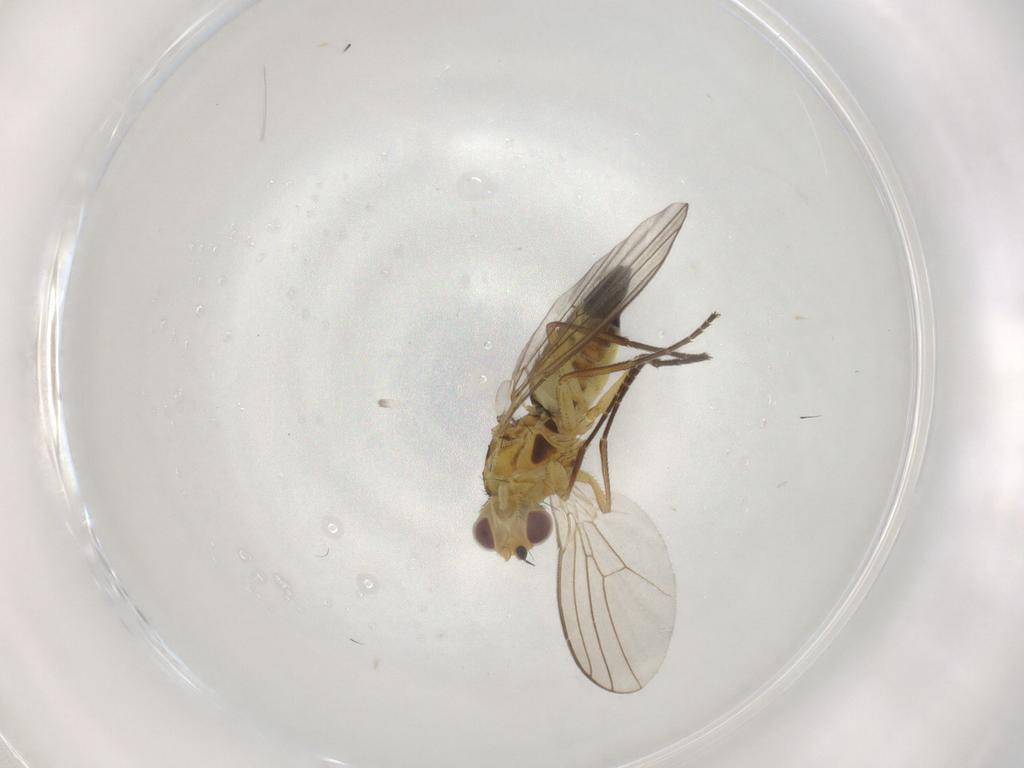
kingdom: Animalia
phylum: Arthropoda
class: Insecta
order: Diptera
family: Agromyzidae
